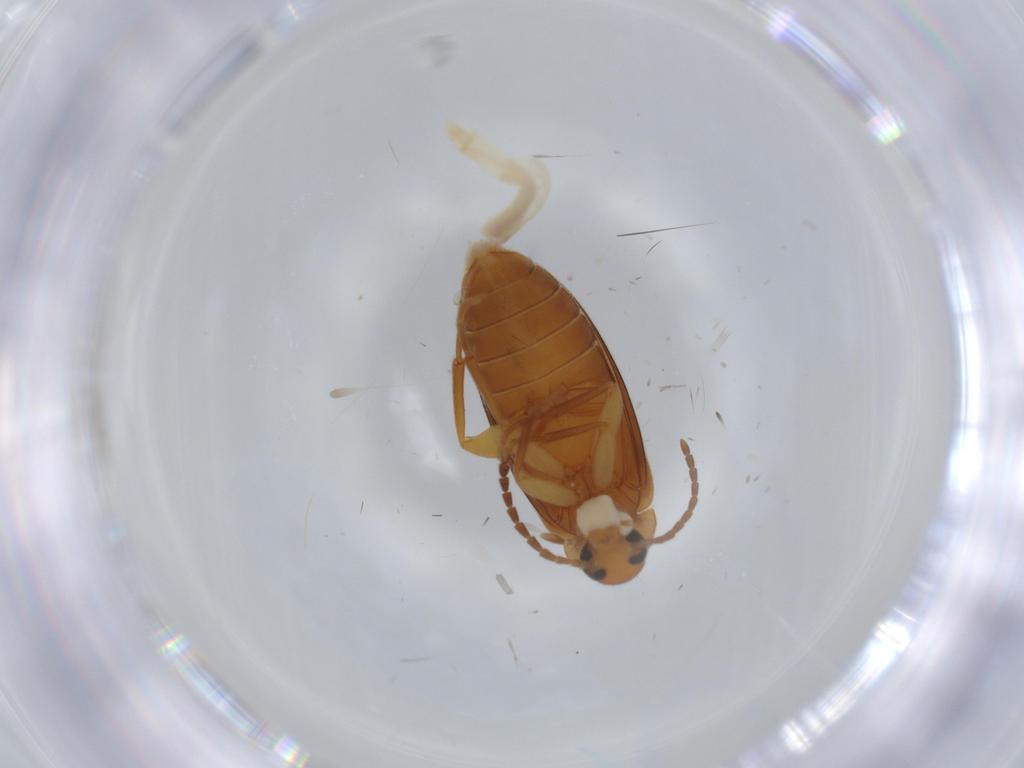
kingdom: Animalia
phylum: Arthropoda
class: Insecta
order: Coleoptera
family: Scraptiidae
